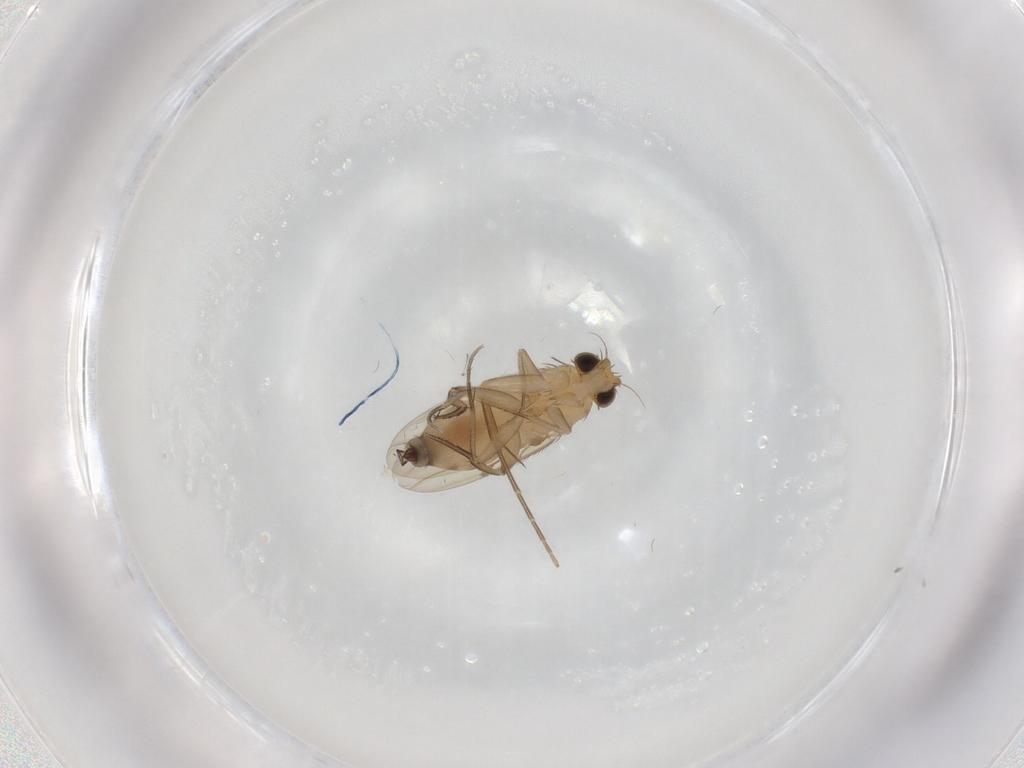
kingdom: Animalia
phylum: Arthropoda
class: Insecta
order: Diptera
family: Phoridae
